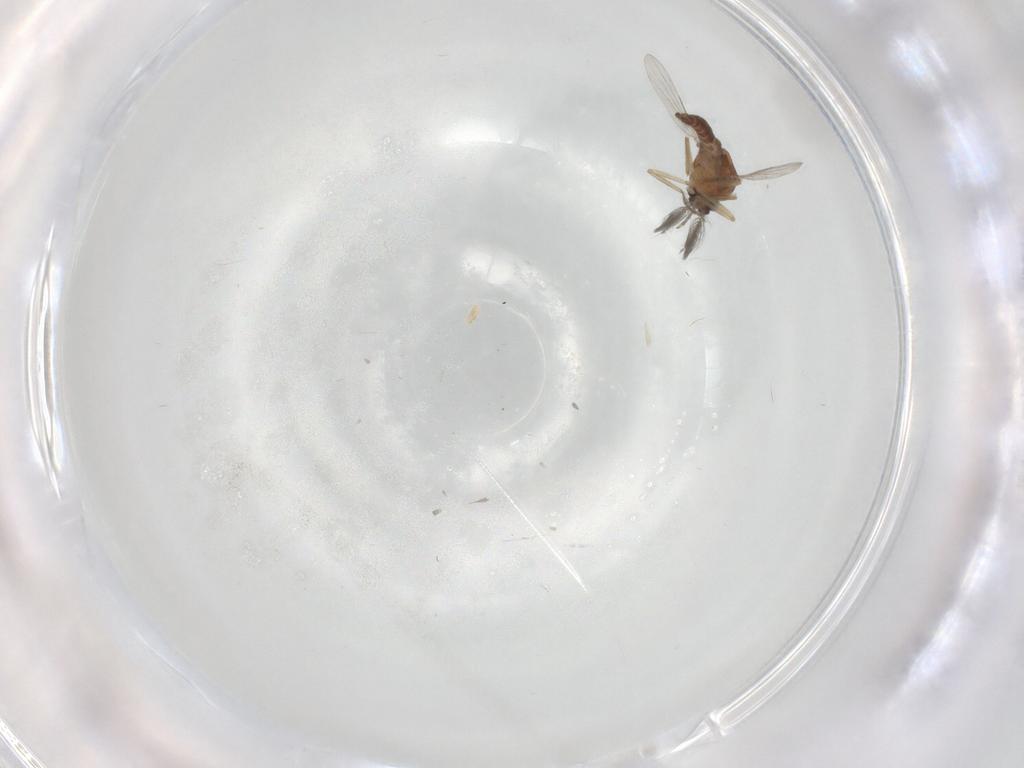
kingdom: Animalia
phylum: Arthropoda
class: Insecta
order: Diptera
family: Ceratopogonidae
